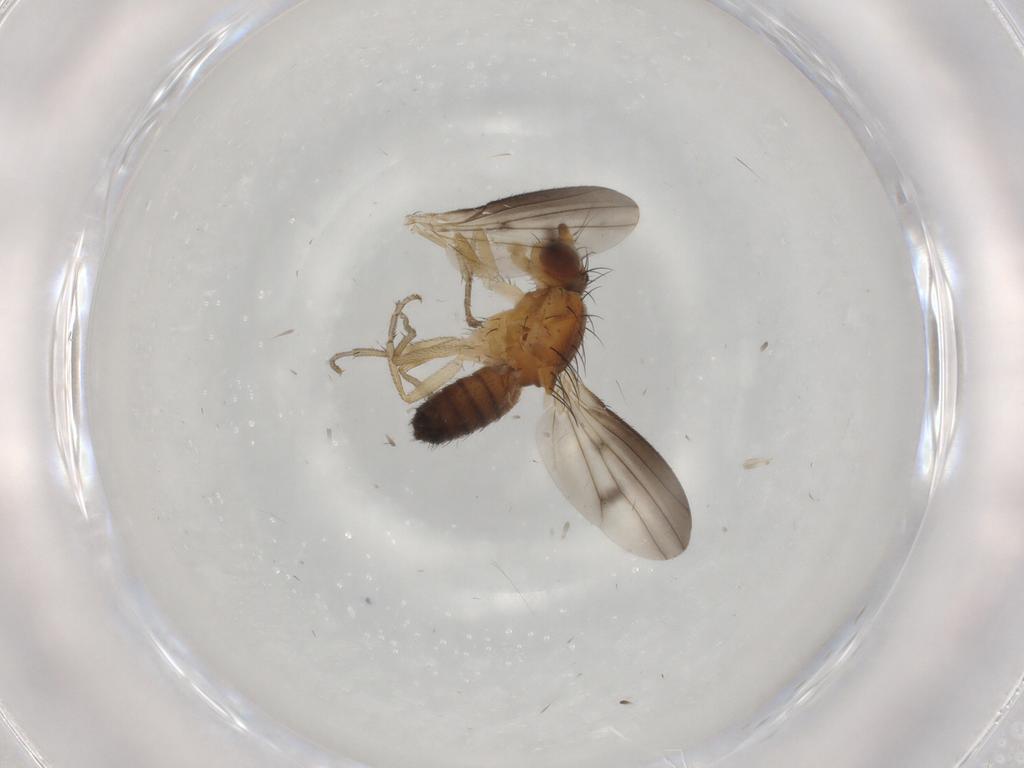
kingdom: Animalia
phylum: Arthropoda
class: Insecta
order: Diptera
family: Heleomyzidae
